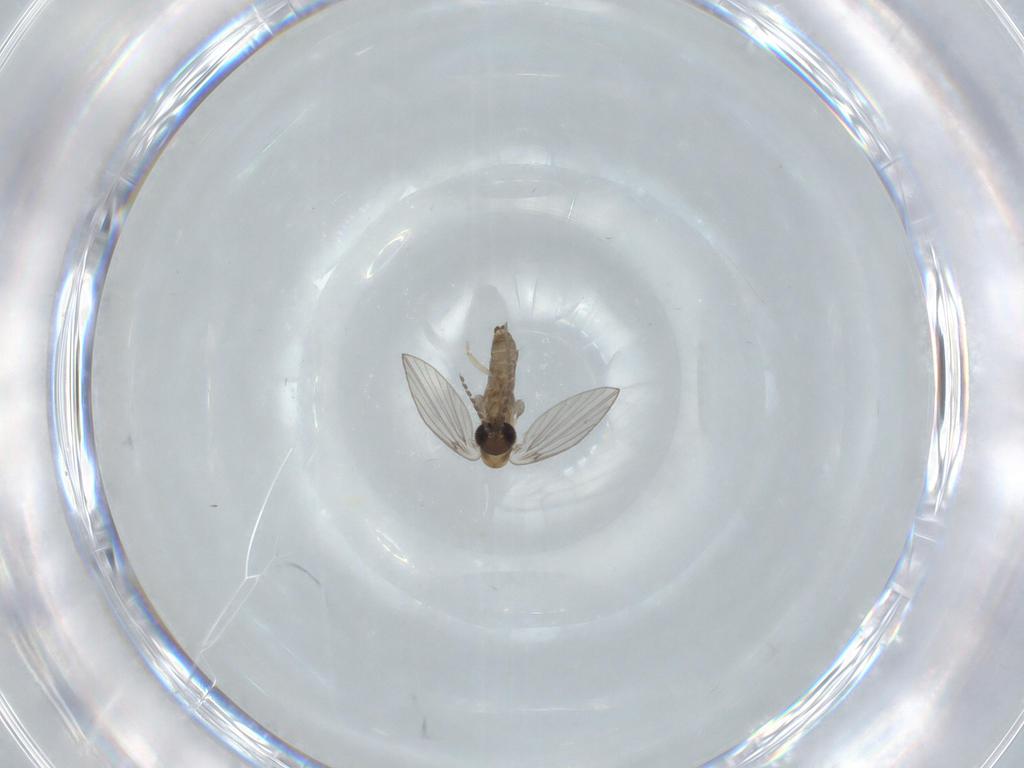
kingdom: Animalia
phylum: Arthropoda
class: Insecta
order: Diptera
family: Psychodidae
